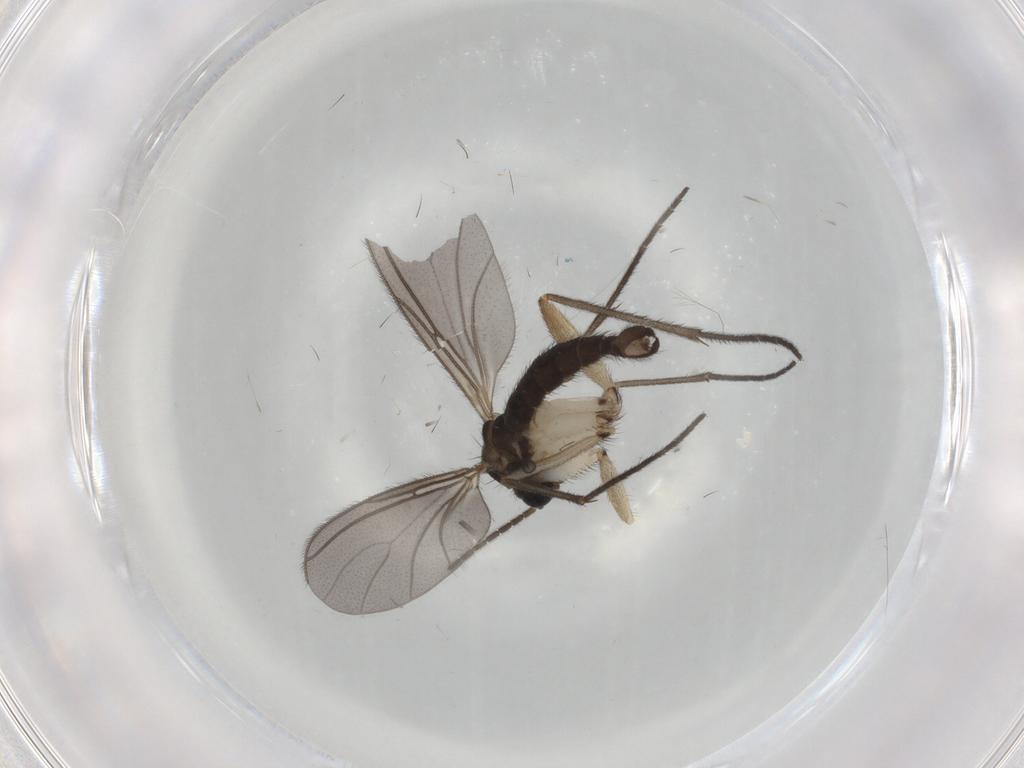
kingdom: Animalia
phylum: Arthropoda
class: Insecta
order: Diptera
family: Sciaridae
